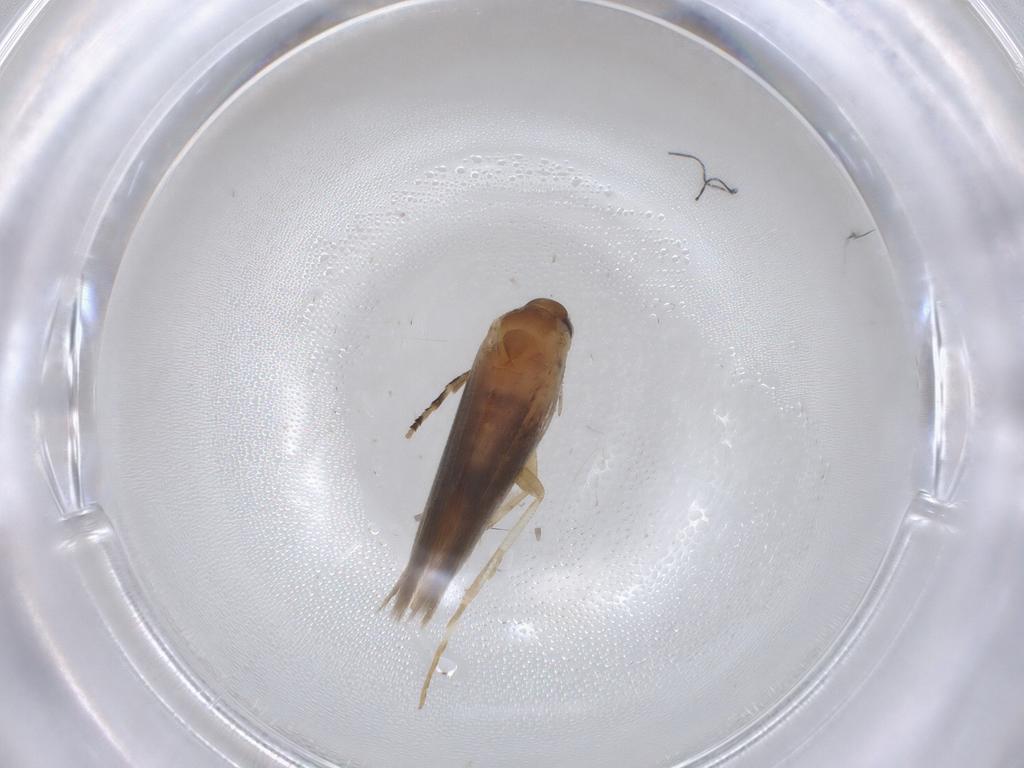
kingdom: Animalia
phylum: Arthropoda
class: Insecta
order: Lepidoptera
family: Gelechiidae
